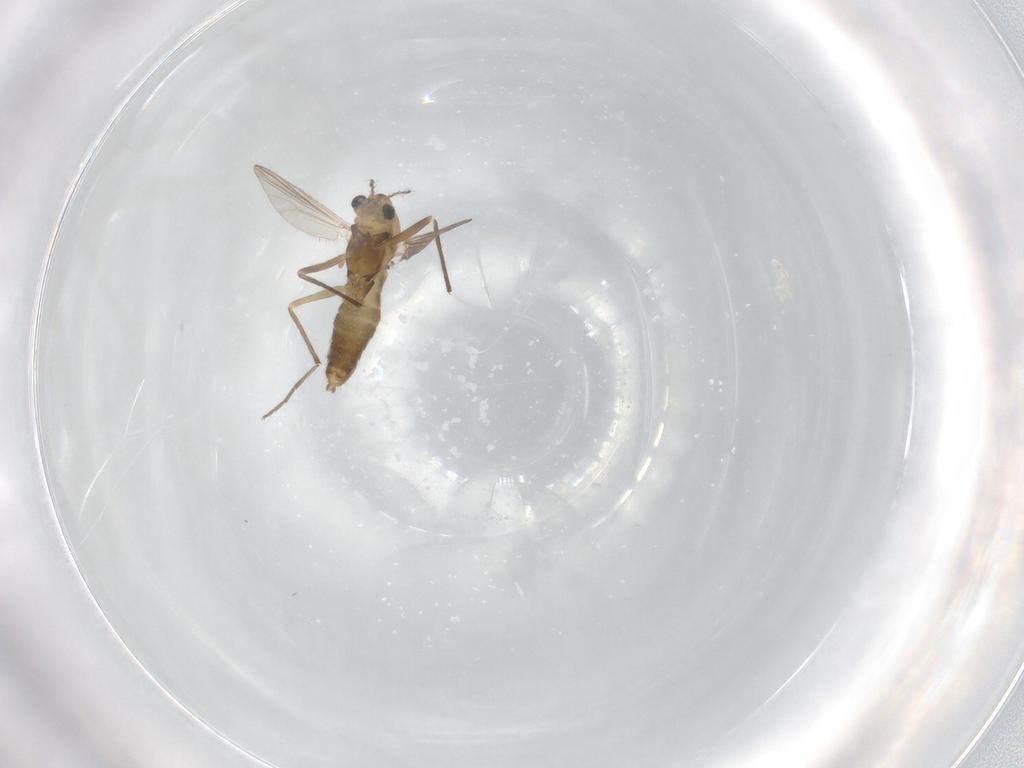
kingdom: Animalia
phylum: Arthropoda
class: Insecta
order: Diptera
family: Chironomidae
